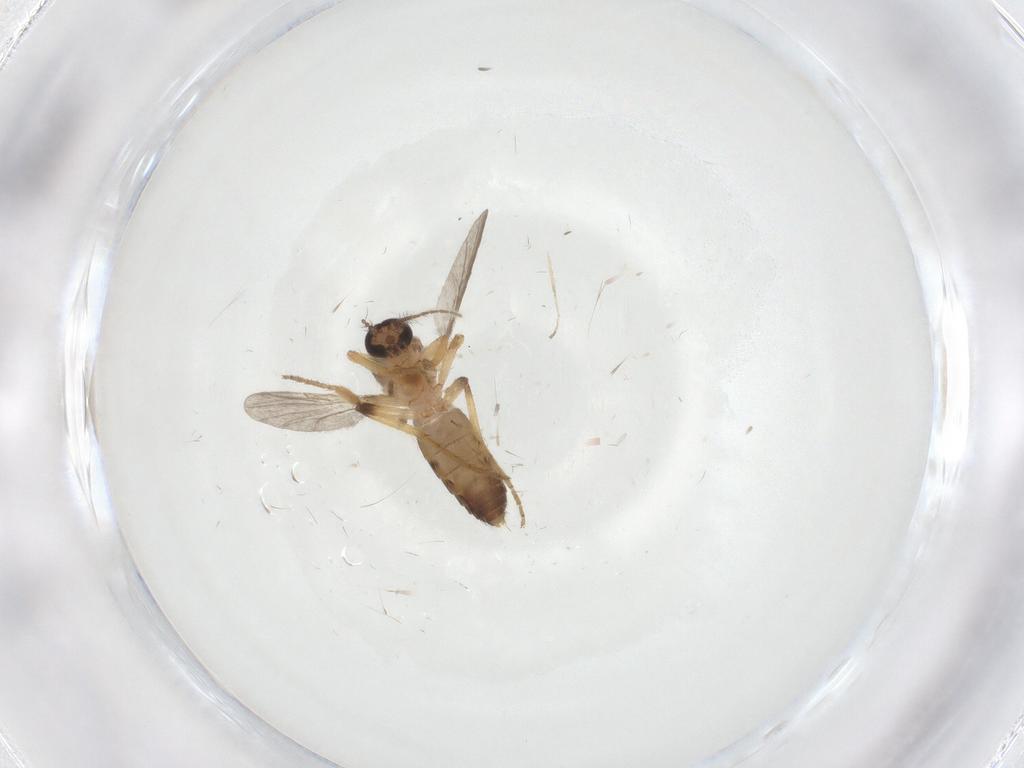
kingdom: Animalia
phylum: Arthropoda
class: Insecta
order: Diptera
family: Ceratopogonidae
